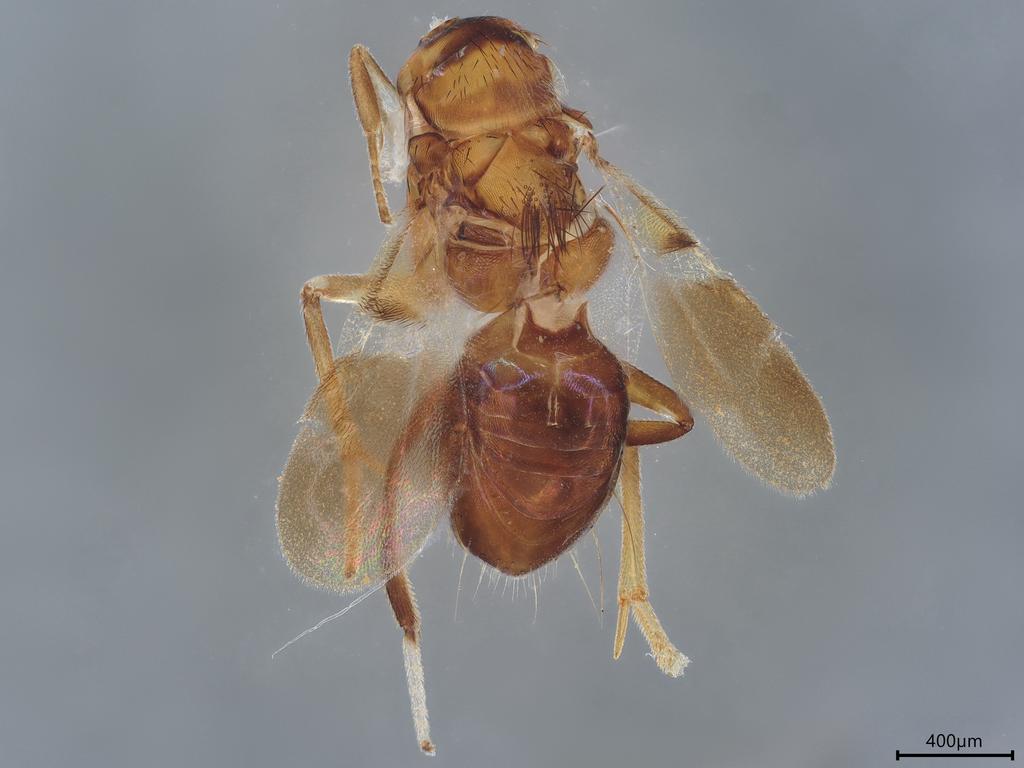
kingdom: Animalia
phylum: Arthropoda
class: Insecta
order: Hymenoptera
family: Encyrtidae
